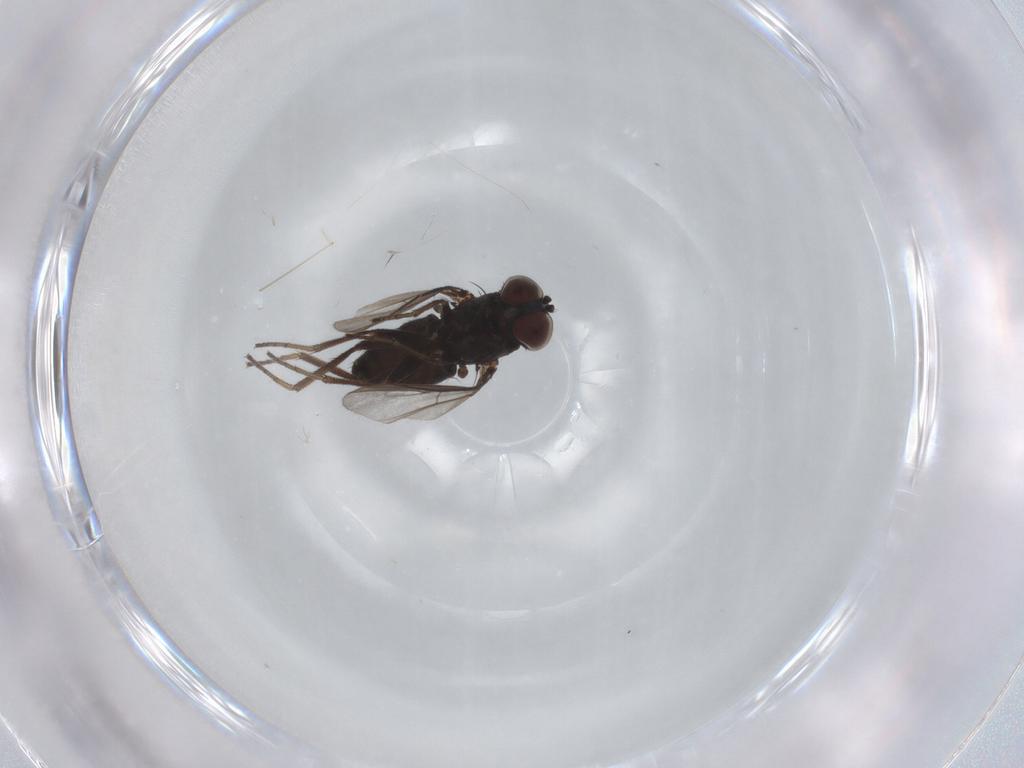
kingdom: Animalia
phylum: Arthropoda
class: Insecta
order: Diptera
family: Dolichopodidae
